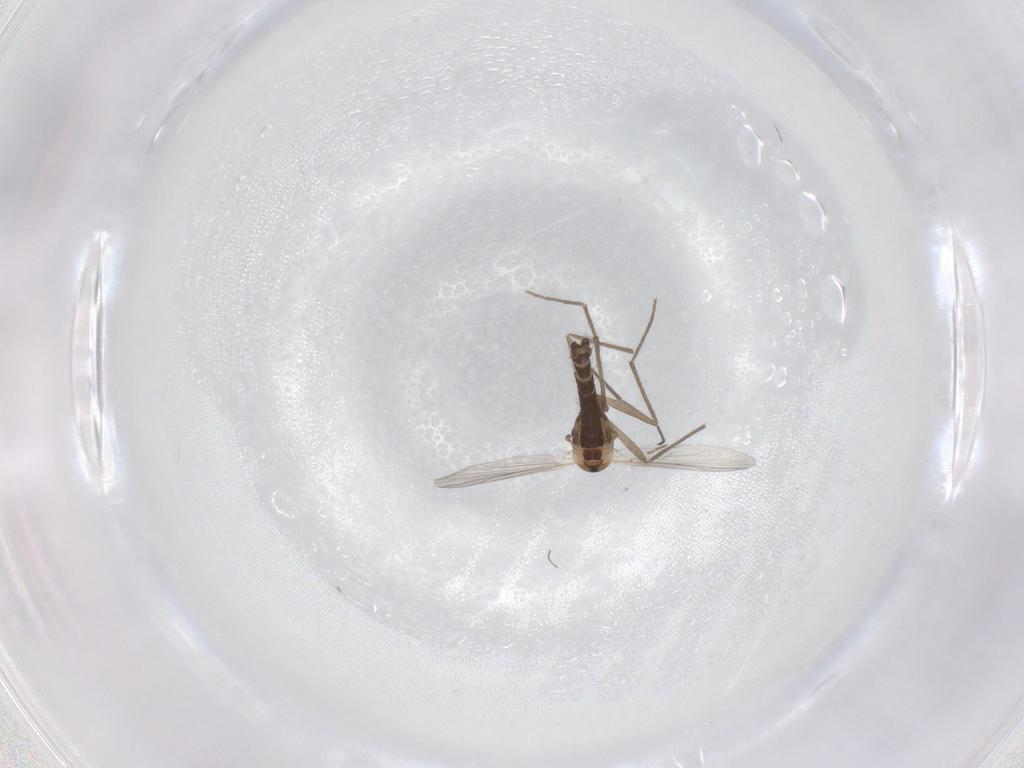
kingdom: Animalia
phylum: Arthropoda
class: Insecta
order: Diptera
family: Chironomidae
